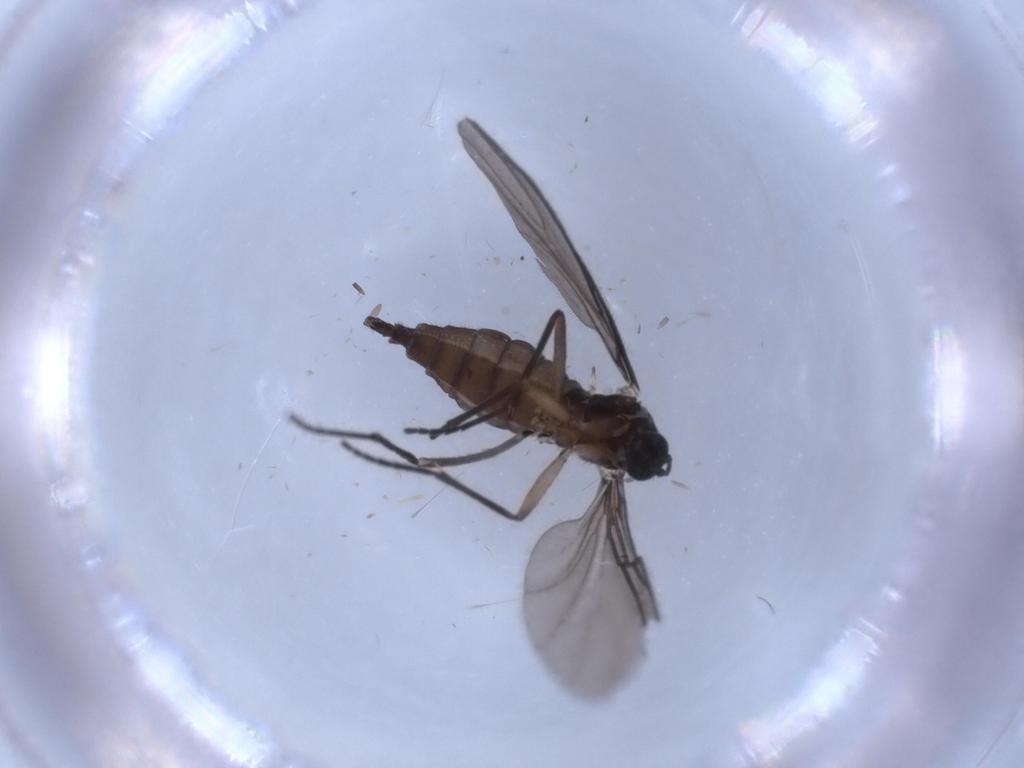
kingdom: Animalia
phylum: Arthropoda
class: Insecta
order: Diptera
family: Sciaridae
